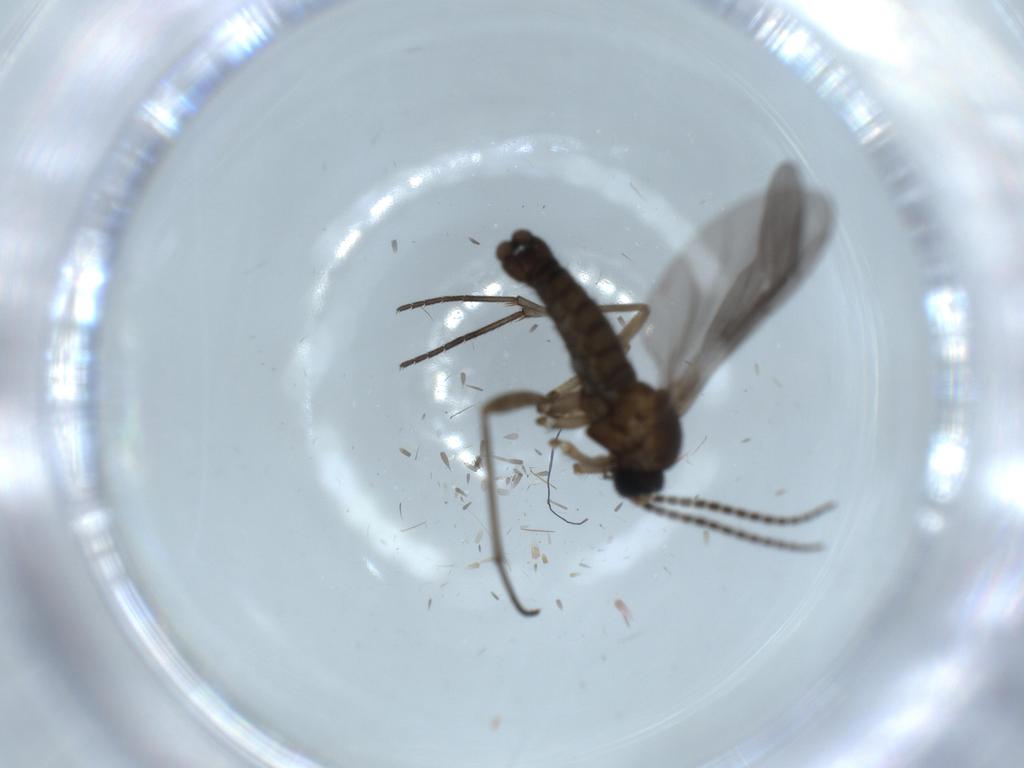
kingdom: Animalia
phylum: Arthropoda
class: Insecta
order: Diptera
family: Sciaridae
